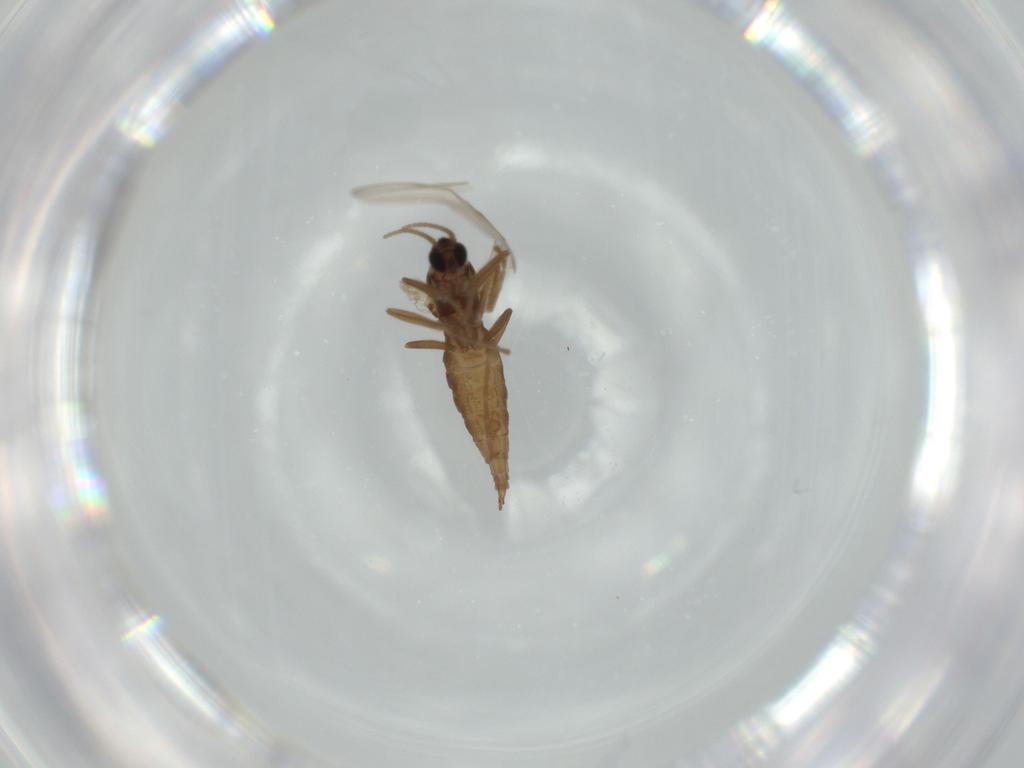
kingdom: Animalia
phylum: Arthropoda
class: Insecta
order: Diptera
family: Cecidomyiidae
